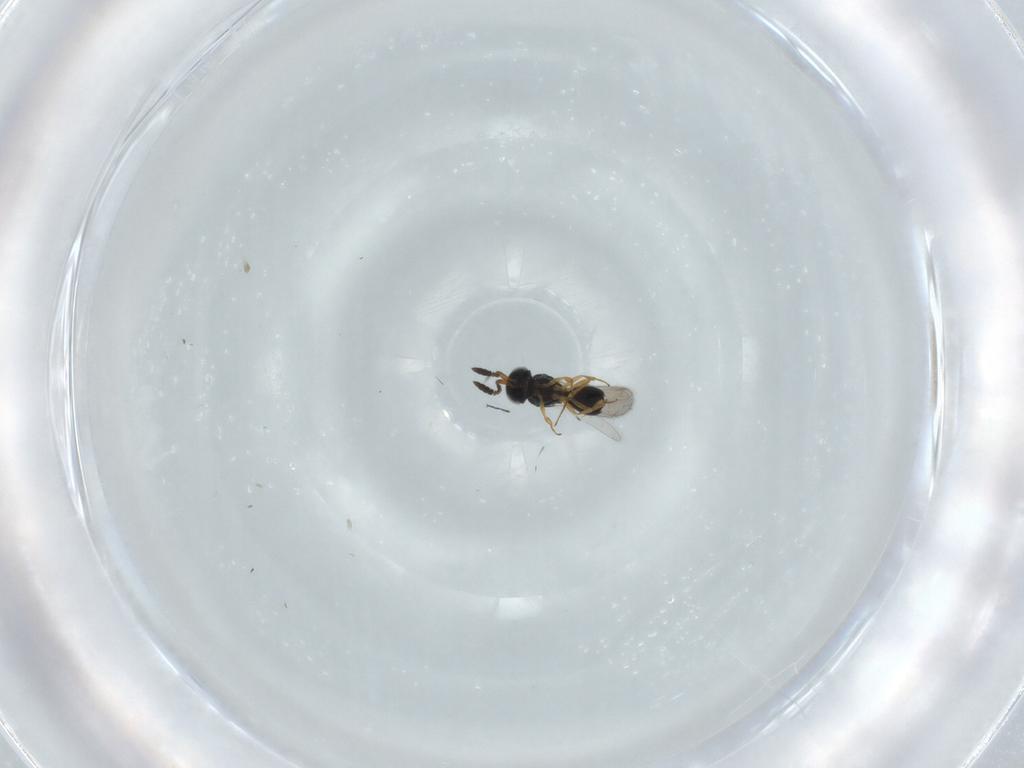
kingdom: Animalia
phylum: Arthropoda
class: Insecta
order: Hymenoptera
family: Scelionidae
